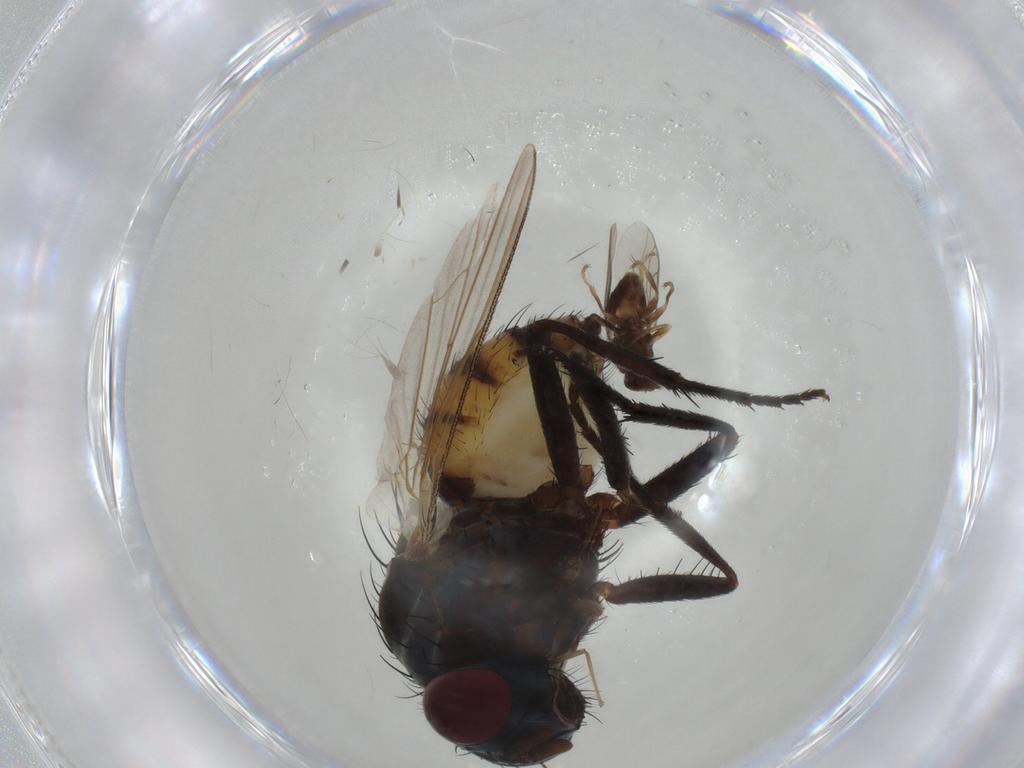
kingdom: Animalia
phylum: Arthropoda
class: Insecta
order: Diptera
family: Anthomyiidae
